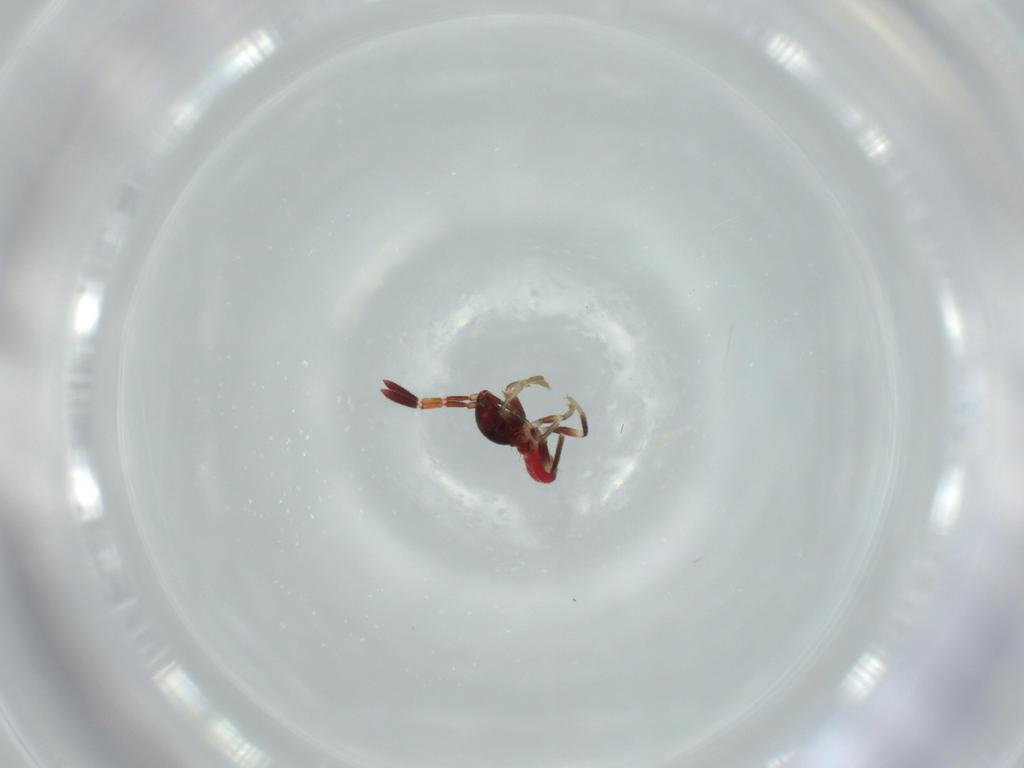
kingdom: Animalia
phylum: Arthropoda
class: Insecta
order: Hemiptera
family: Rhyparochromidae
